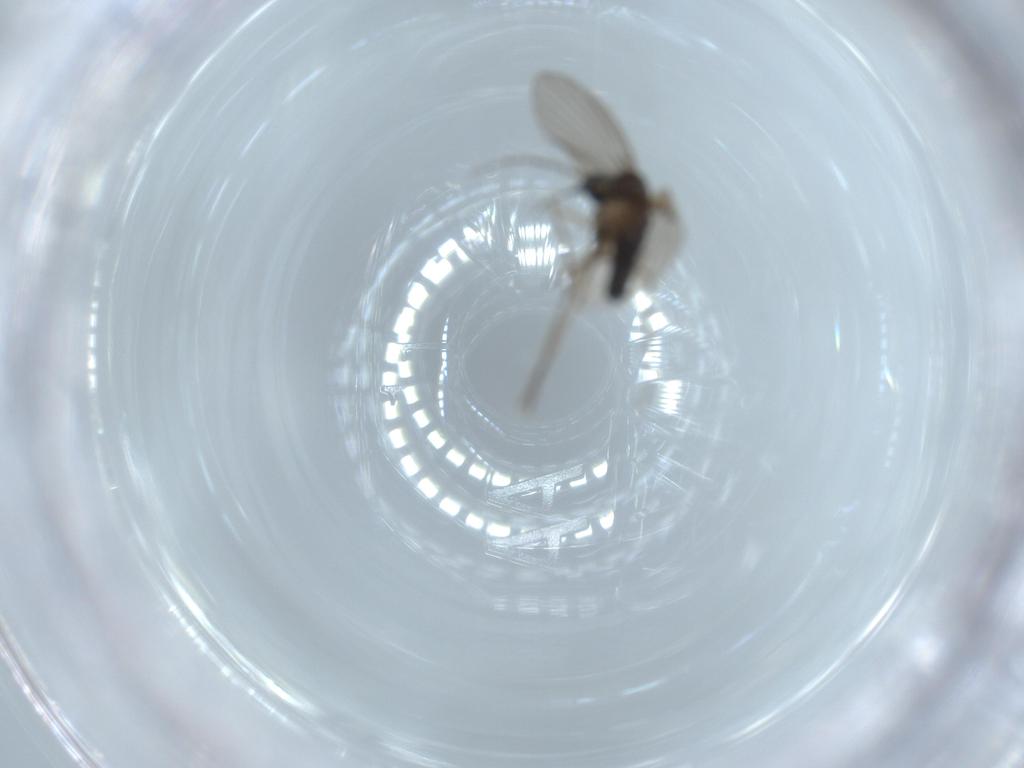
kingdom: Animalia
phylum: Arthropoda
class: Insecta
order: Diptera
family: Psychodidae
